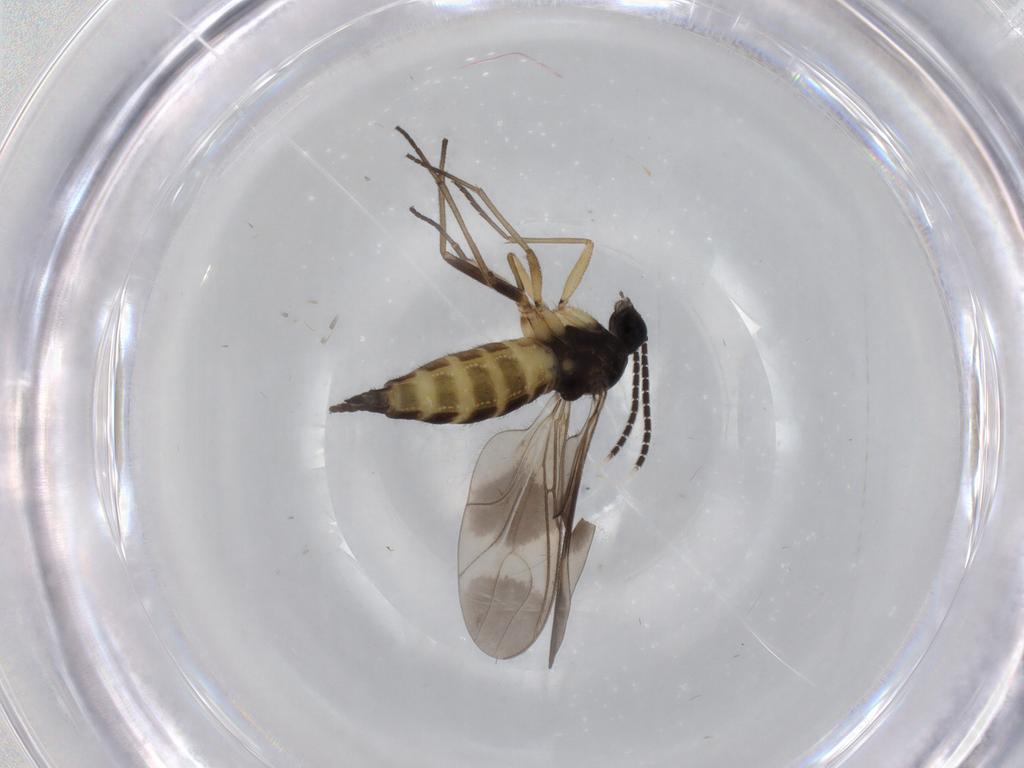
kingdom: Animalia
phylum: Arthropoda
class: Insecta
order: Diptera
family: Sciaridae
